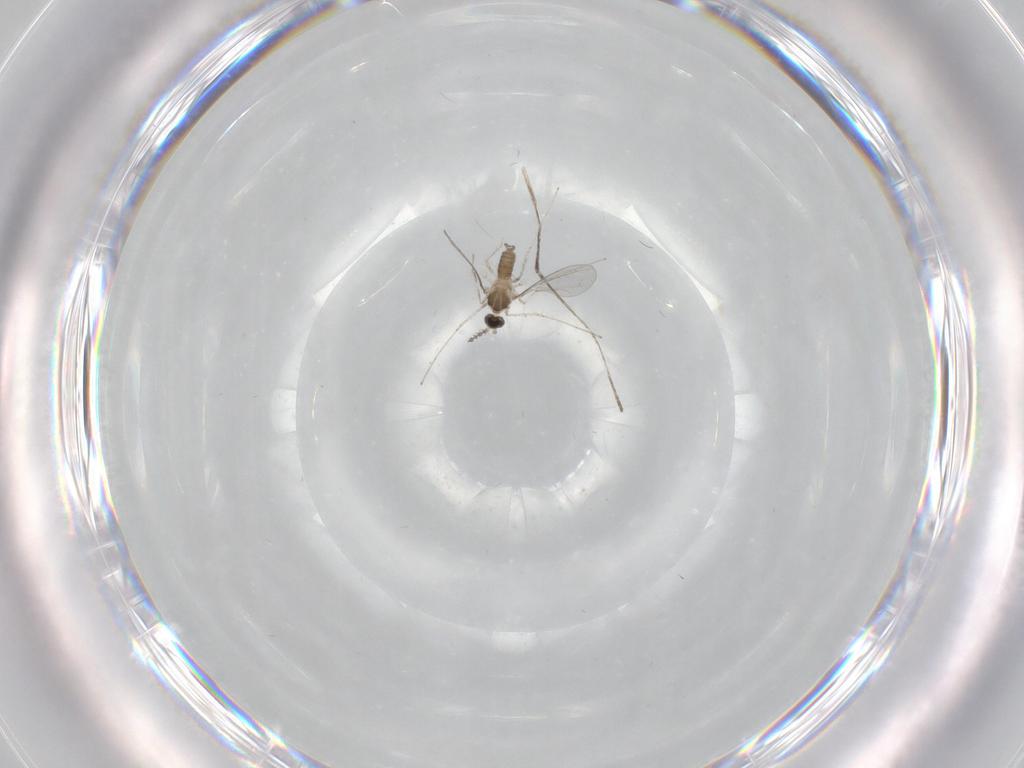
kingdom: Animalia
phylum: Arthropoda
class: Insecta
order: Diptera
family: Cecidomyiidae
